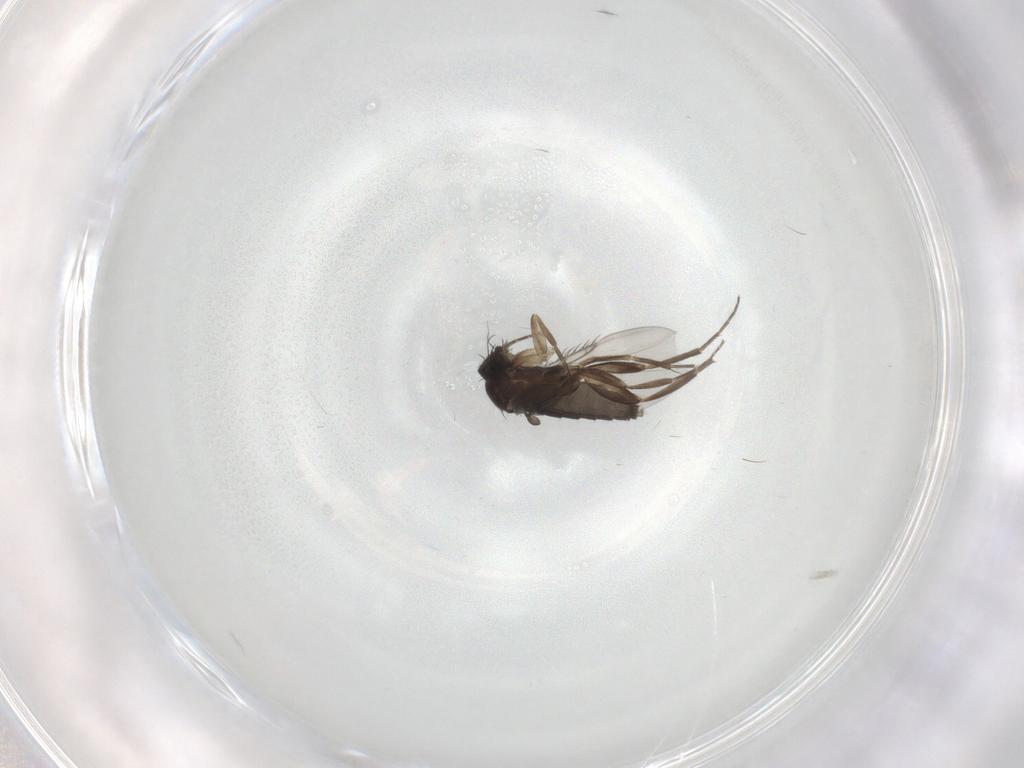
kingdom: Animalia
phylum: Arthropoda
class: Insecta
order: Diptera
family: Phoridae
